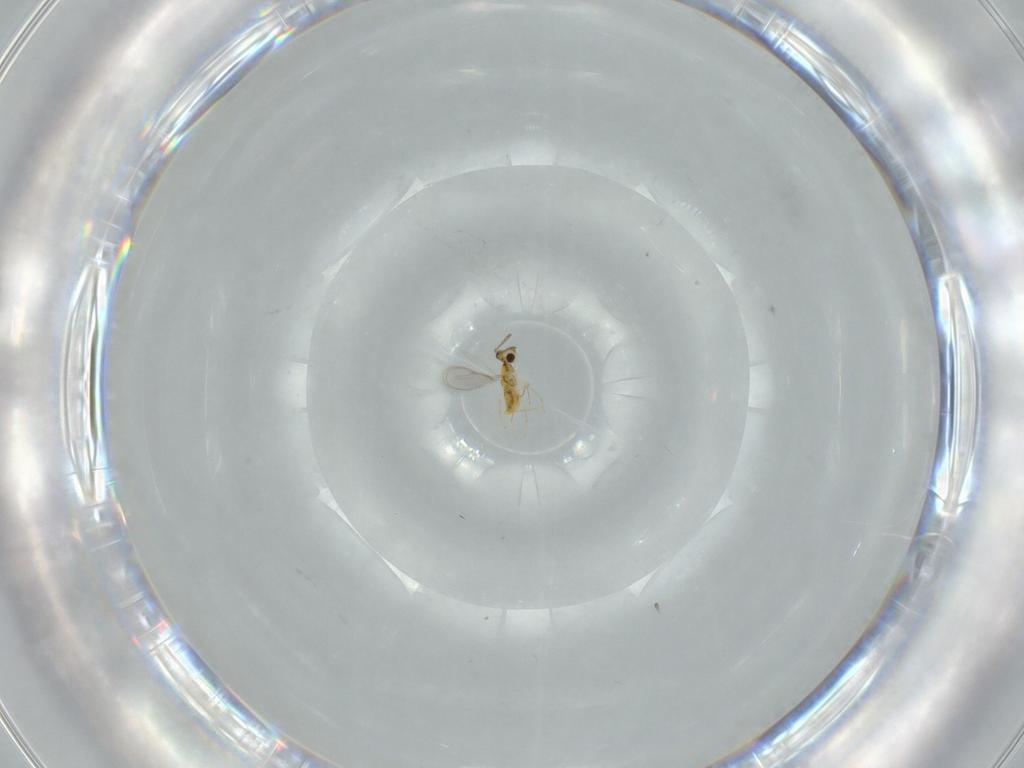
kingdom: Animalia
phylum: Arthropoda
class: Insecta
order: Hymenoptera
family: Aphelinidae
